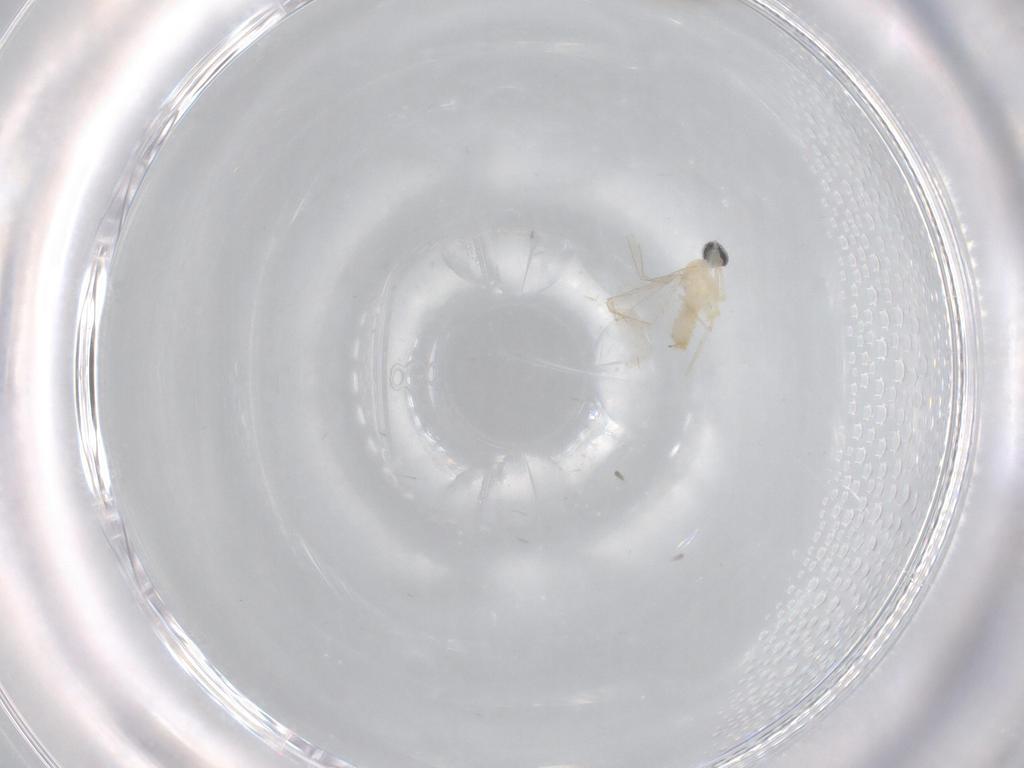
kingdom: Animalia
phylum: Arthropoda
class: Insecta
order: Diptera
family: Cecidomyiidae
